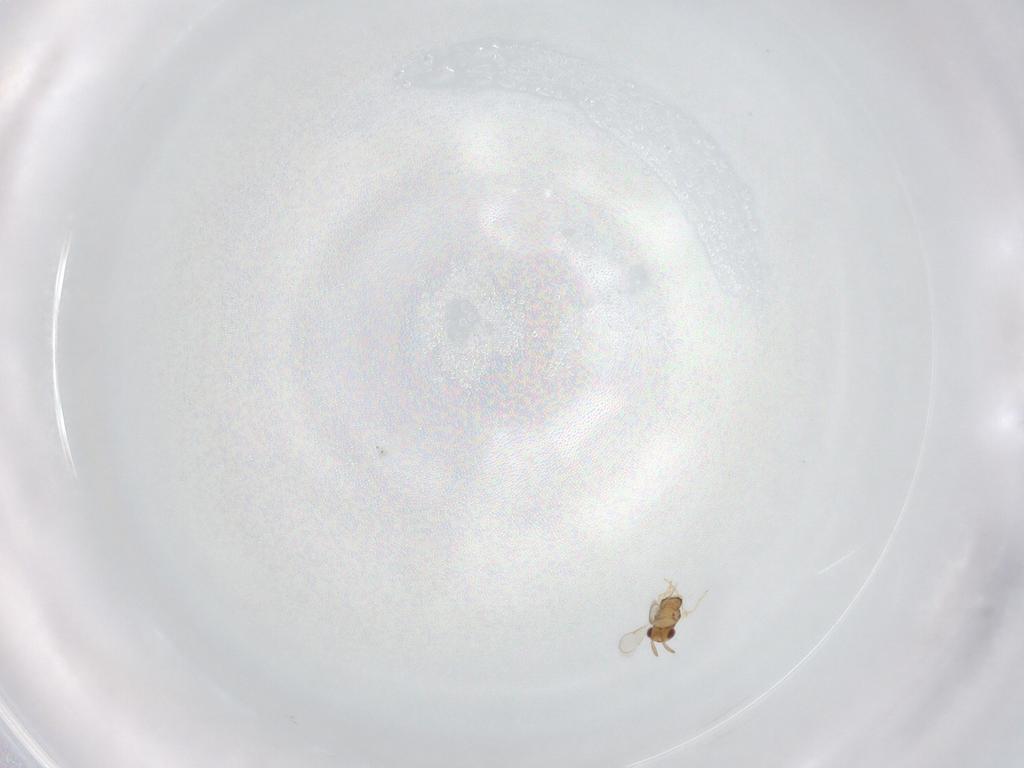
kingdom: Animalia
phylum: Arthropoda
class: Insecta
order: Hymenoptera
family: Aphelinidae
